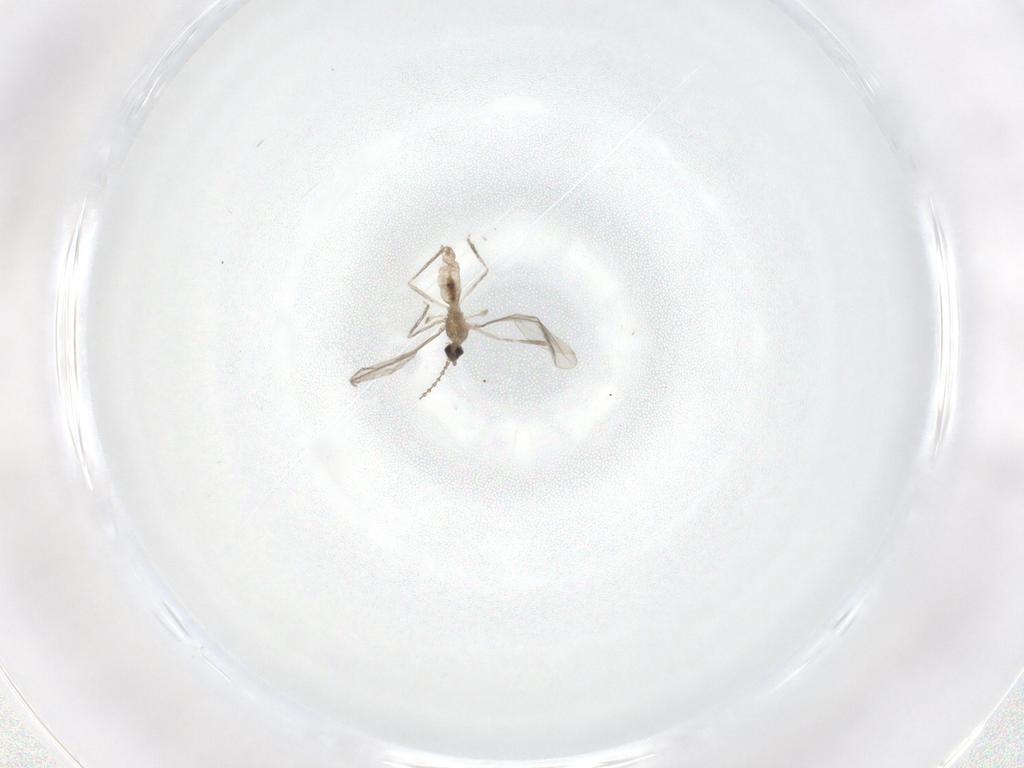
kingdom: Animalia
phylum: Arthropoda
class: Insecta
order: Diptera
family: Cecidomyiidae
